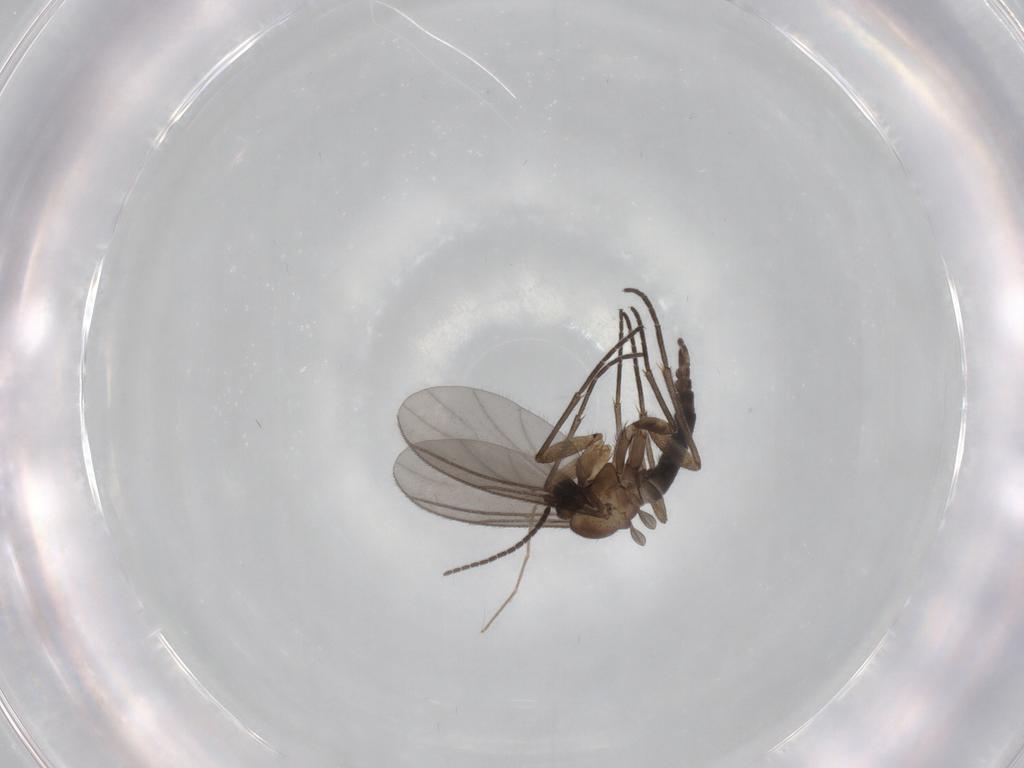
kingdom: Animalia
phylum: Arthropoda
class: Insecta
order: Diptera
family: Sciaridae
